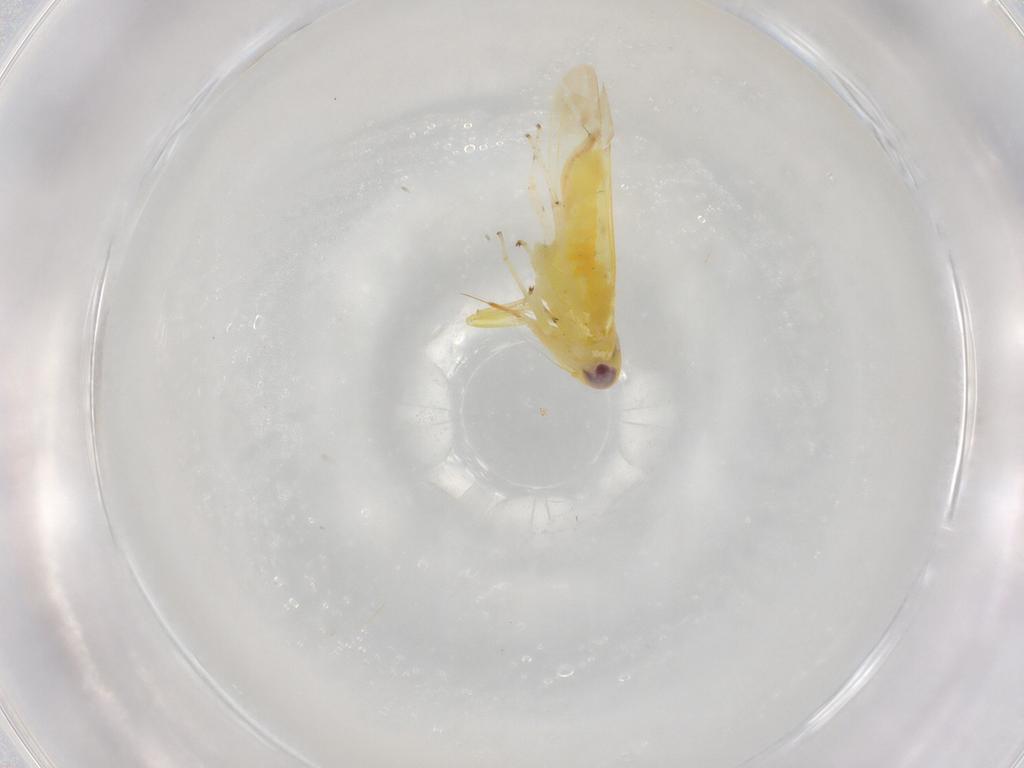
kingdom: Animalia
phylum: Arthropoda
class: Insecta
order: Hemiptera
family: Cicadellidae
